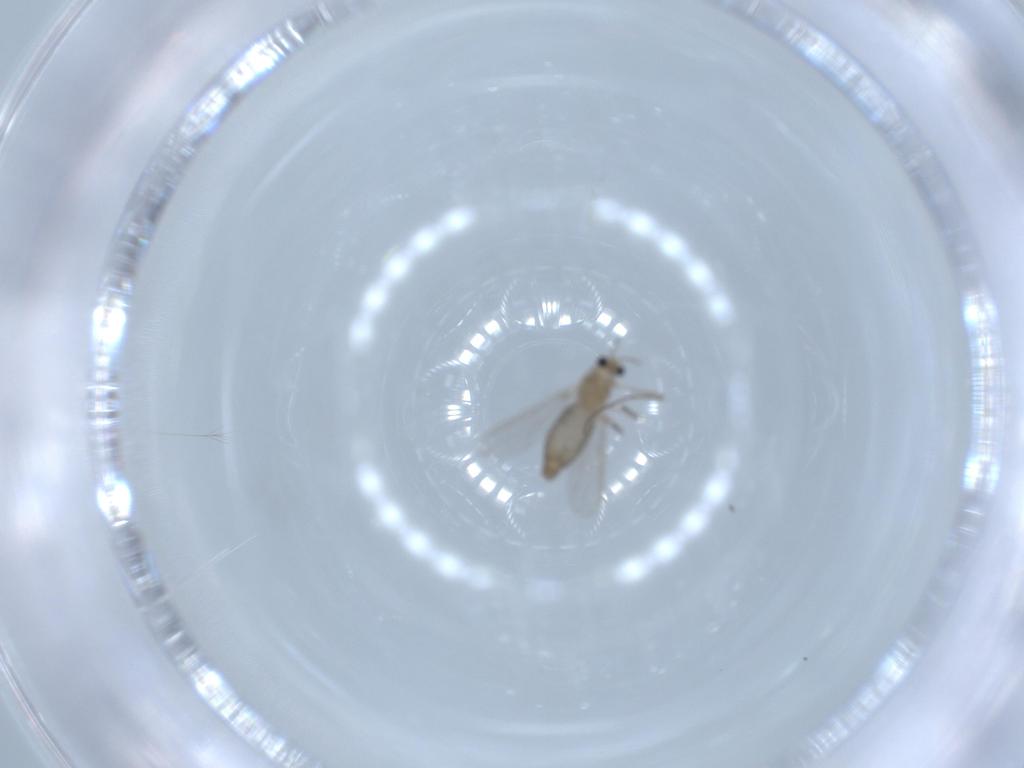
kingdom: Animalia
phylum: Arthropoda
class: Insecta
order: Diptera
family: Chironomidae
